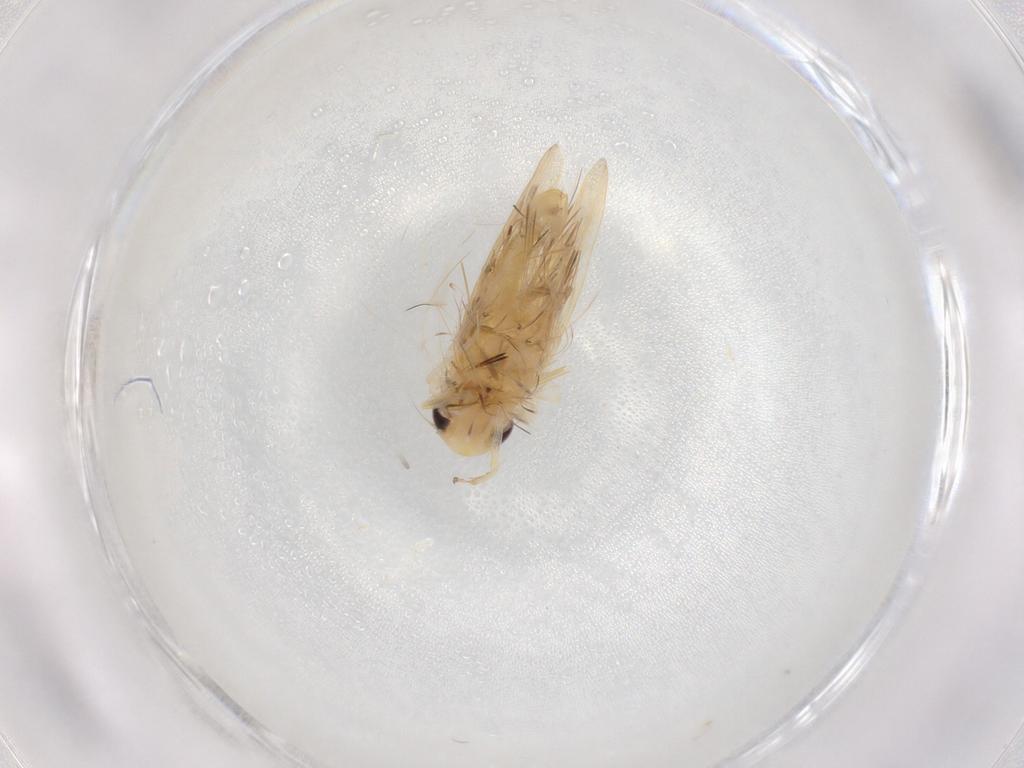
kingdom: Animalia
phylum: Arthropoda
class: Insecta
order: Hemiptera
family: Cicadellidae
